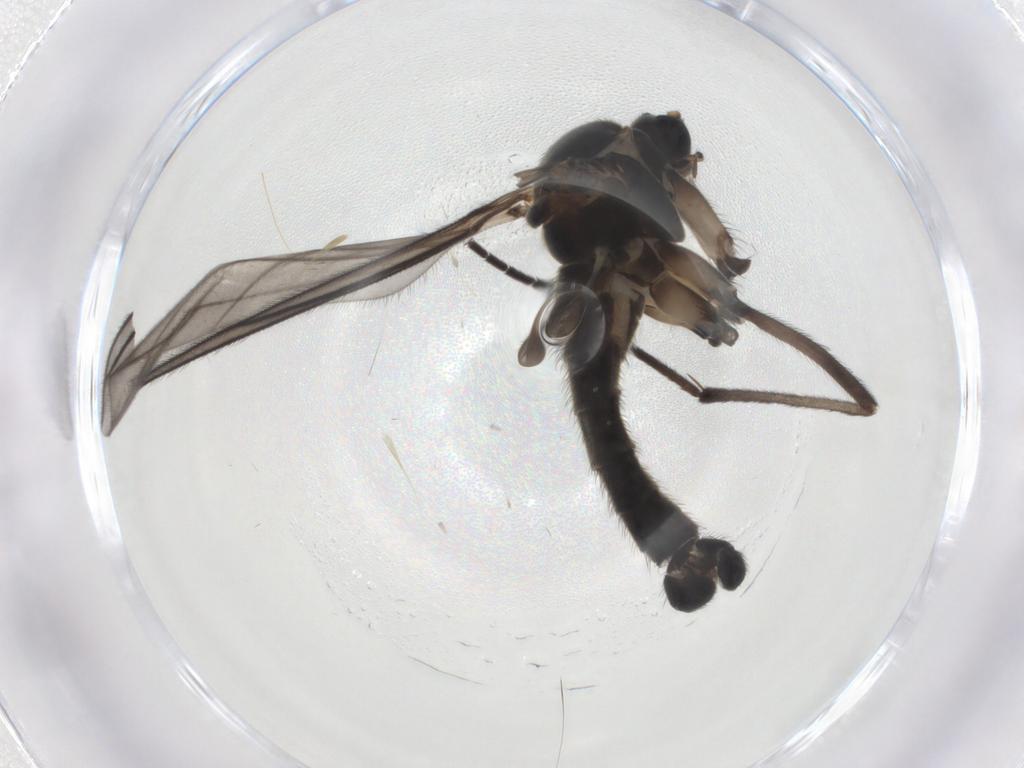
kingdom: Animalia
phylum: Arthropoda
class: Insecta
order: Diptera
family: Sciaridae
